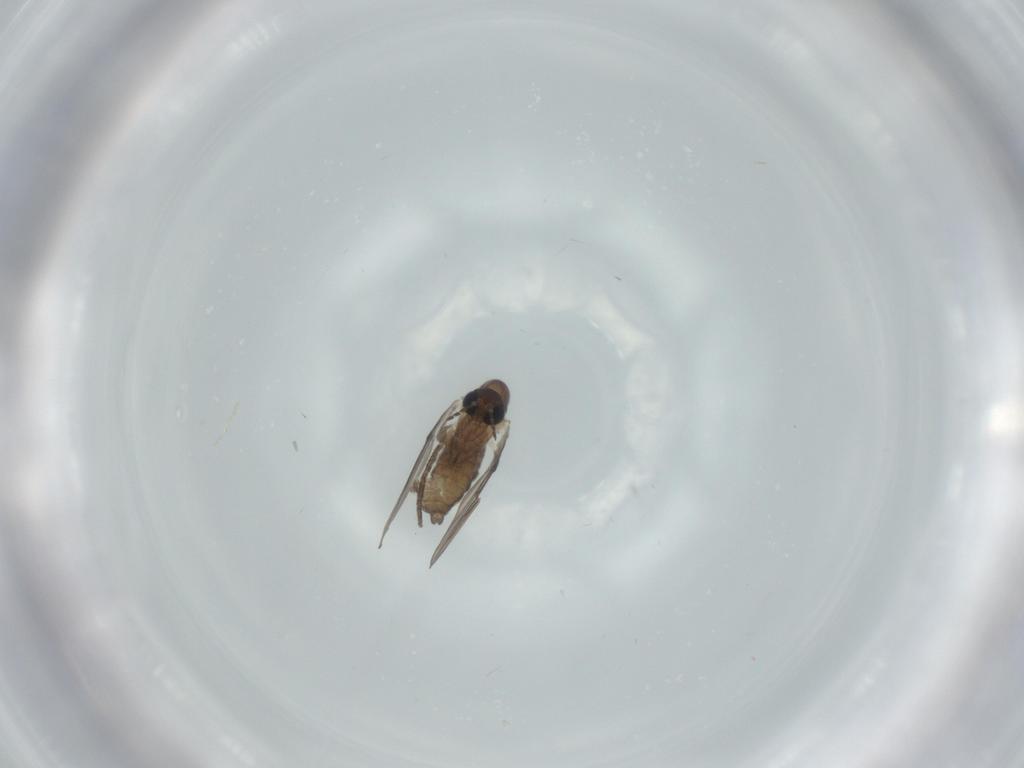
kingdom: Animalia
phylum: Arthropoda
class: Insecta
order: Diptera
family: Psychodidae
